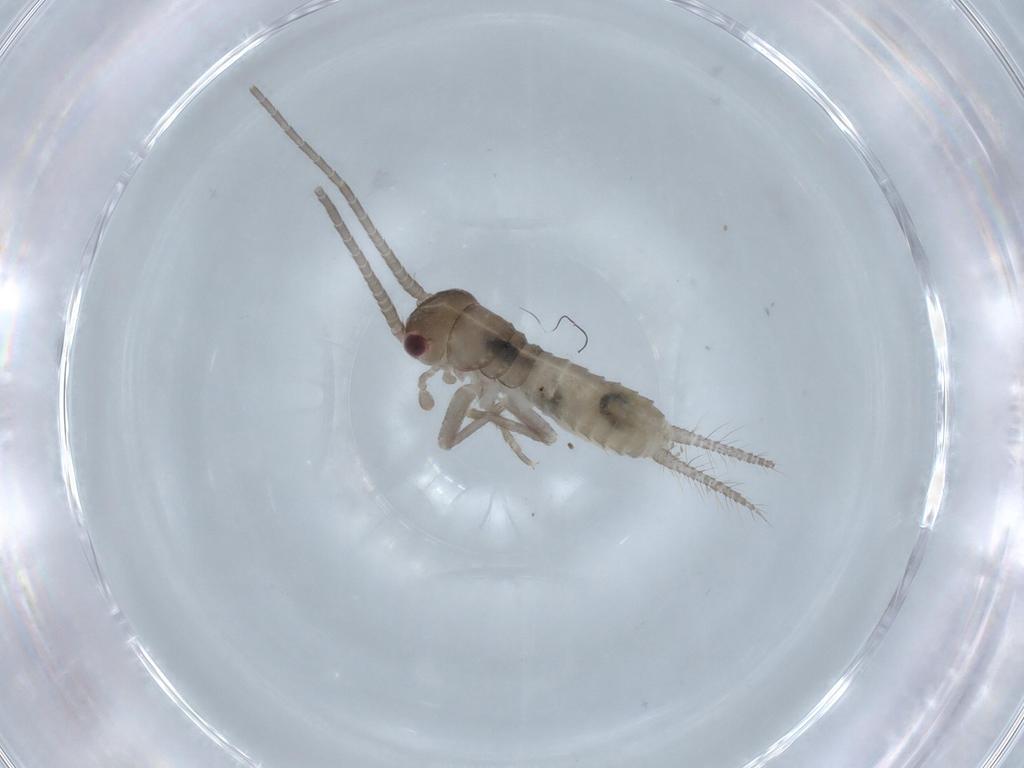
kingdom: Animalia
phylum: Arthropoda
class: Insecta
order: Orthoptera
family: Gryllidae
